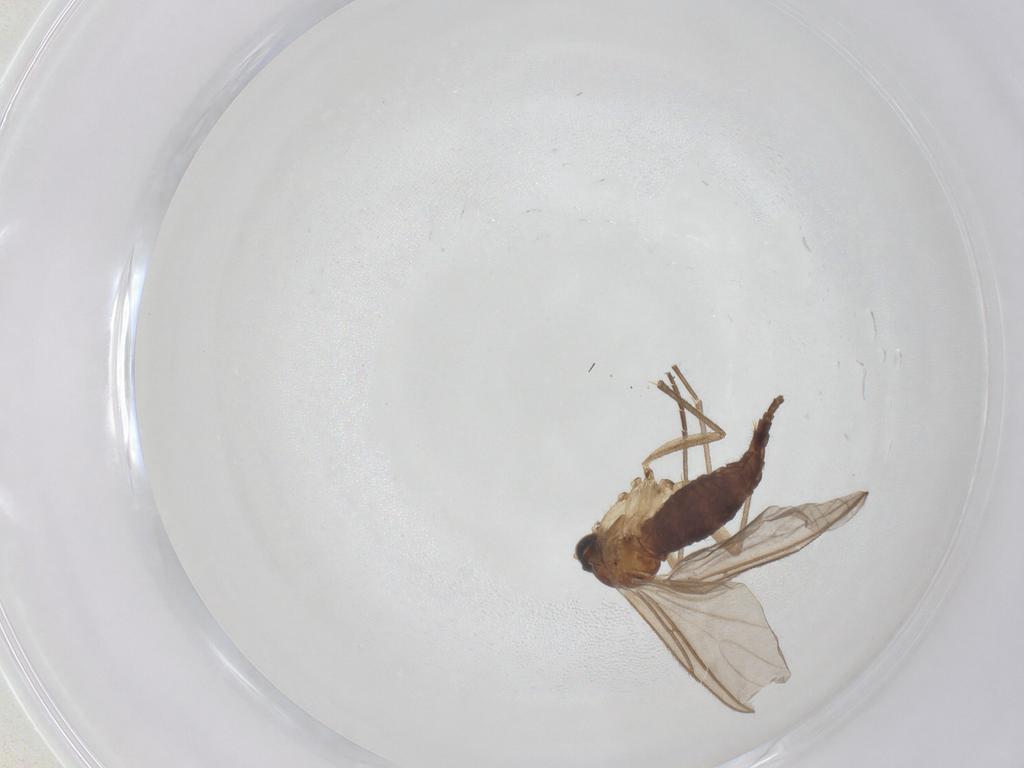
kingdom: Animalia
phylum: Arthropoda
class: Insecta
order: Diptera
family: Sciaridae
